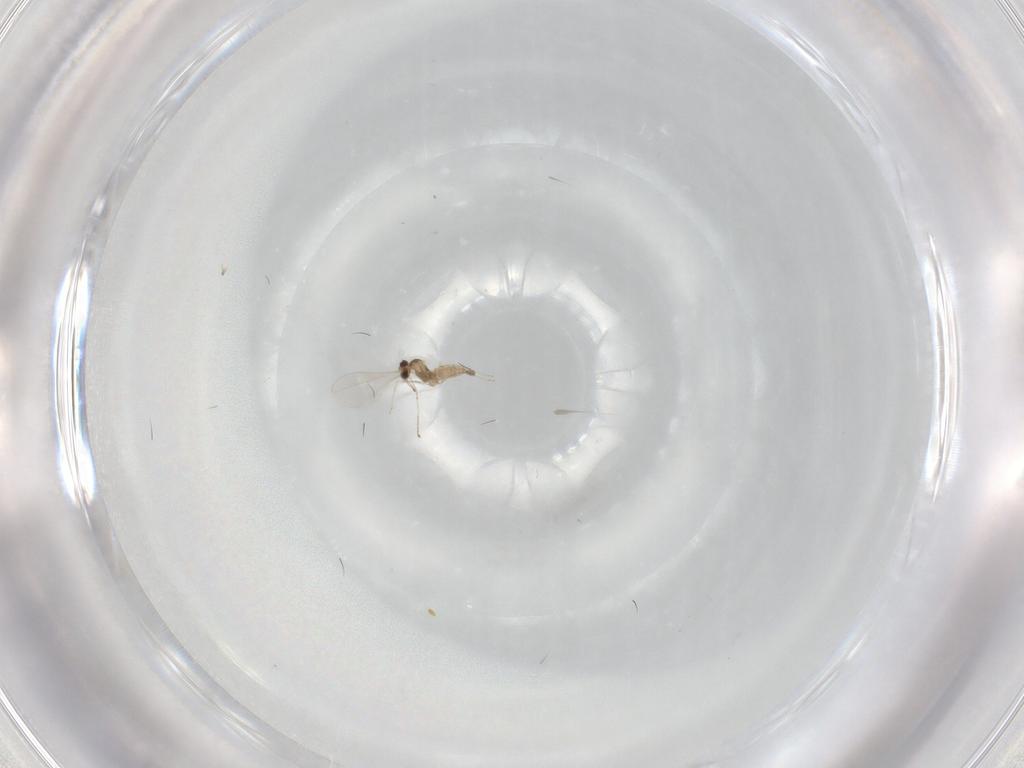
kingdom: Animalia
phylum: Arthropoda
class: Insecta
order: Diptera
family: Cecidomyiidae
